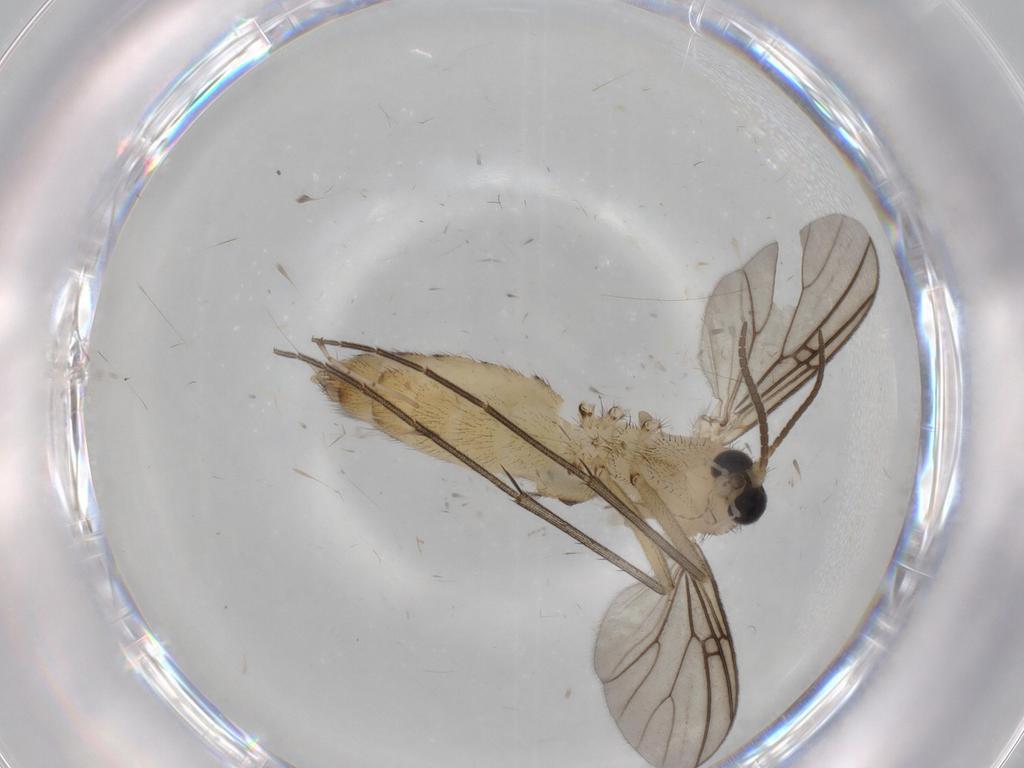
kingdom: Animalia
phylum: Arthropoda
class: Insecta
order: Diptera
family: Mycetophilidae
